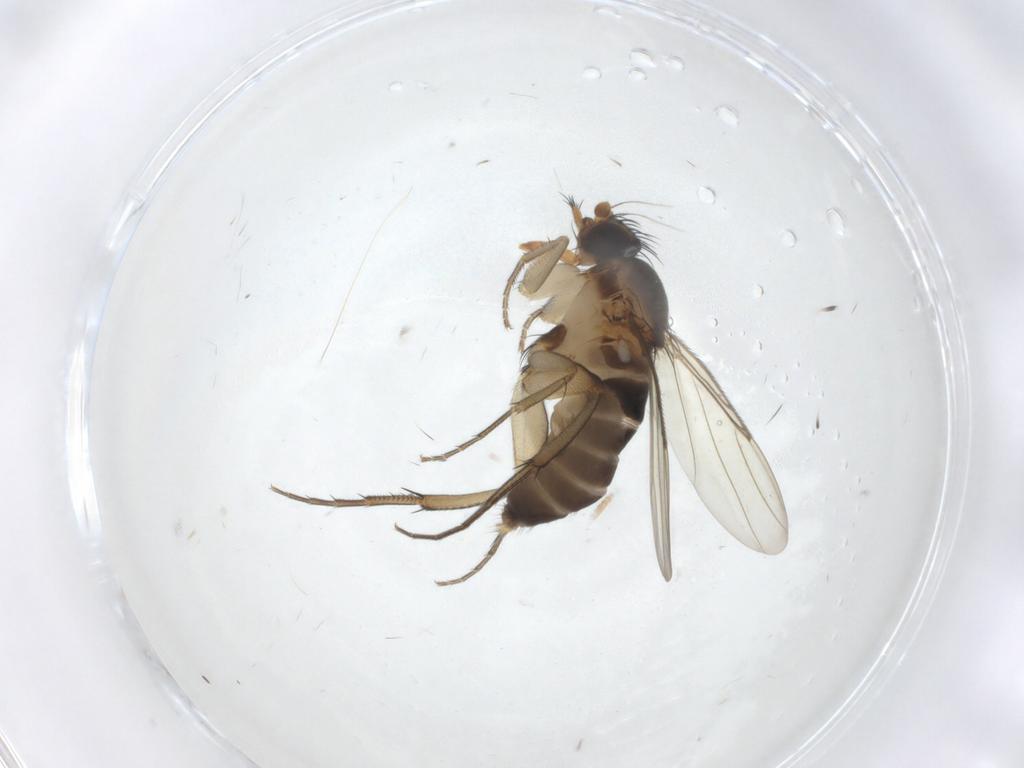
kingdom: Animalia
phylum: Arthropoda
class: Insecta
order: Diptera
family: Phoridae
